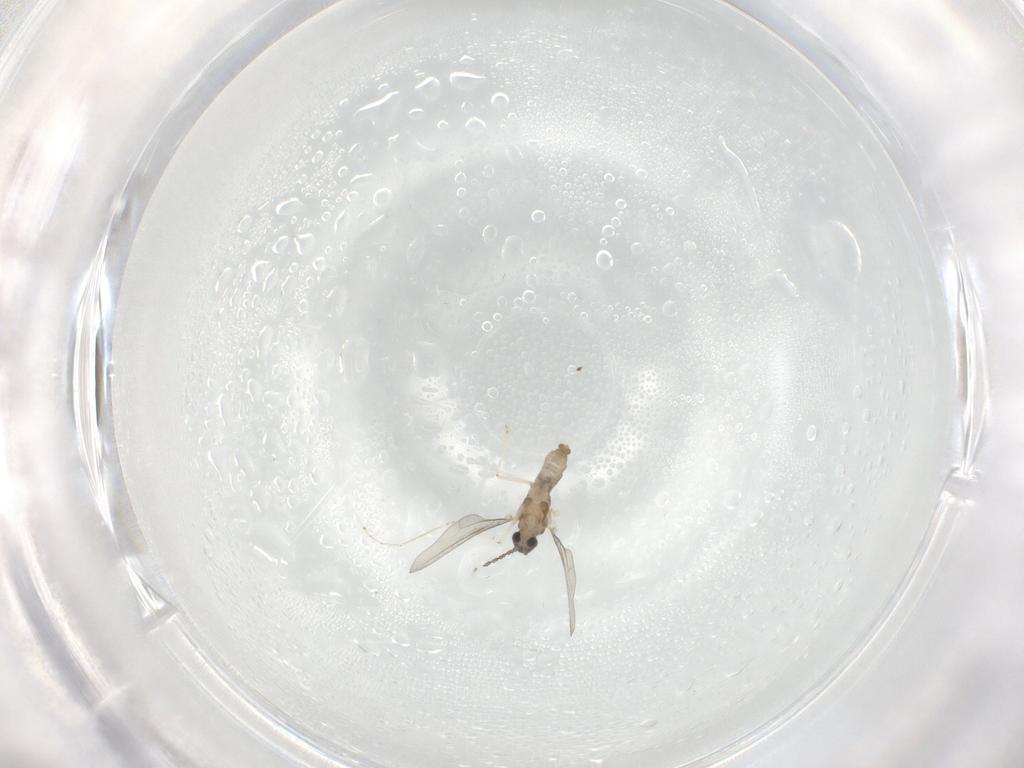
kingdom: Animalia
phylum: Arthropoda
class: Insecta
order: Diptera
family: Cecidomyiidae
